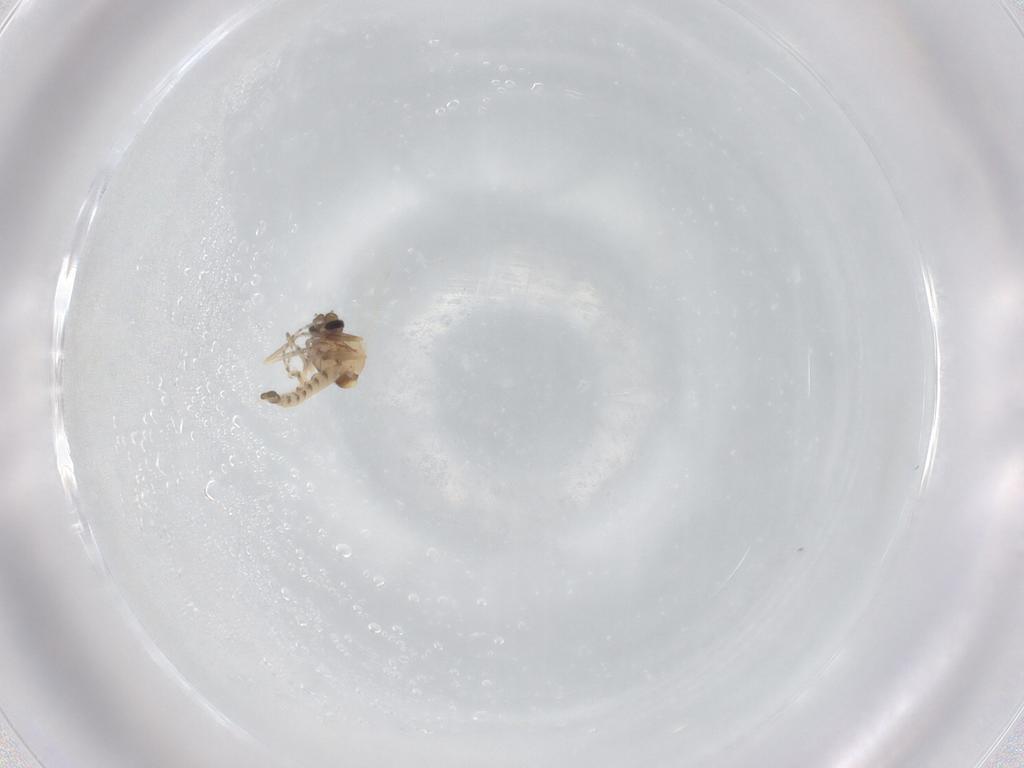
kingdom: Animalia
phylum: Arthropoda
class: Insecta
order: Diptera
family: Ceratopogonidae
